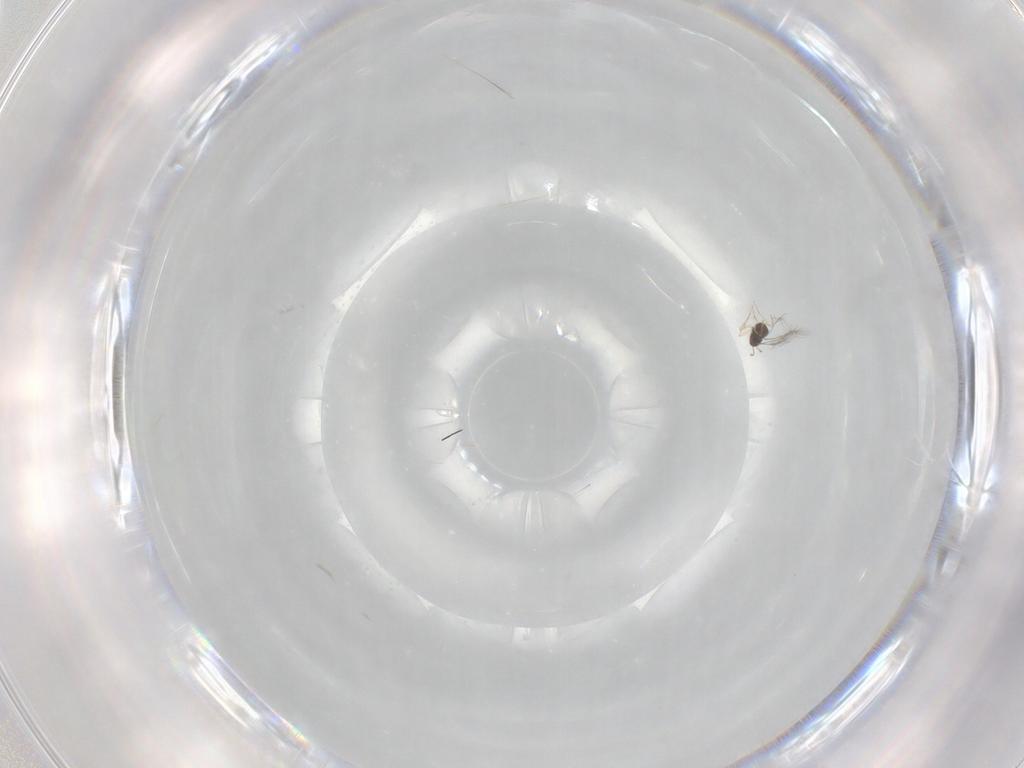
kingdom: Animalia
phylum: Arthropoda
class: Insecta
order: Hymenoptera
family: Mymaridae
